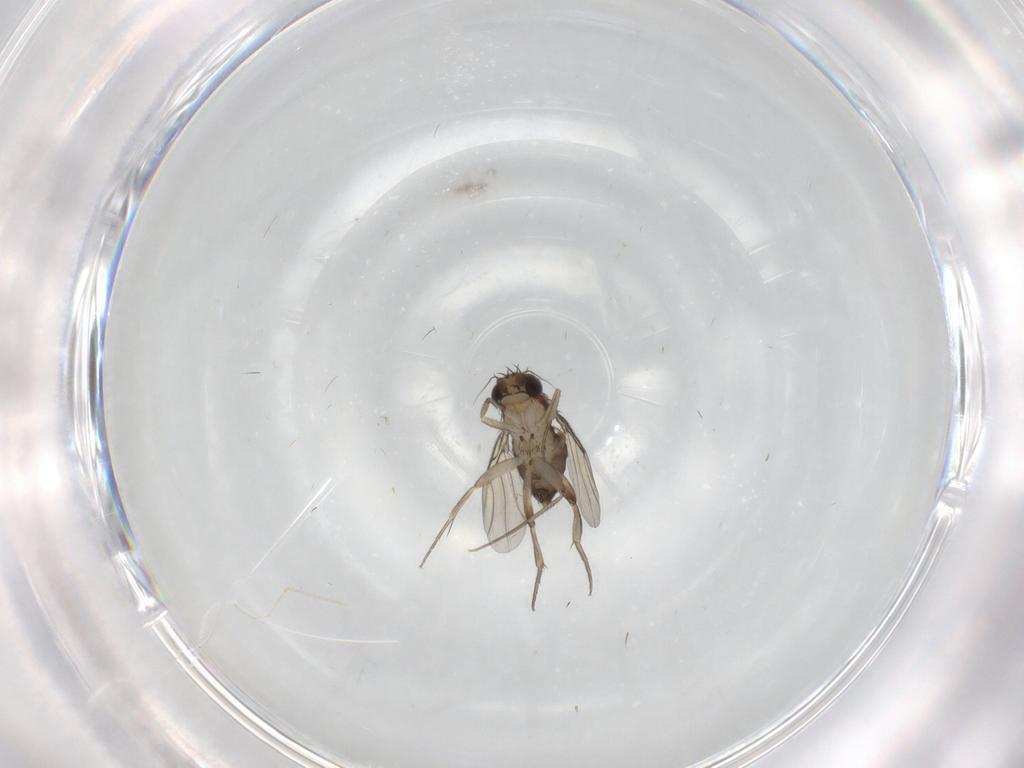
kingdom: Animalia
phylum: Arthropoda
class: Insecta
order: Diptera
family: Phoridae
